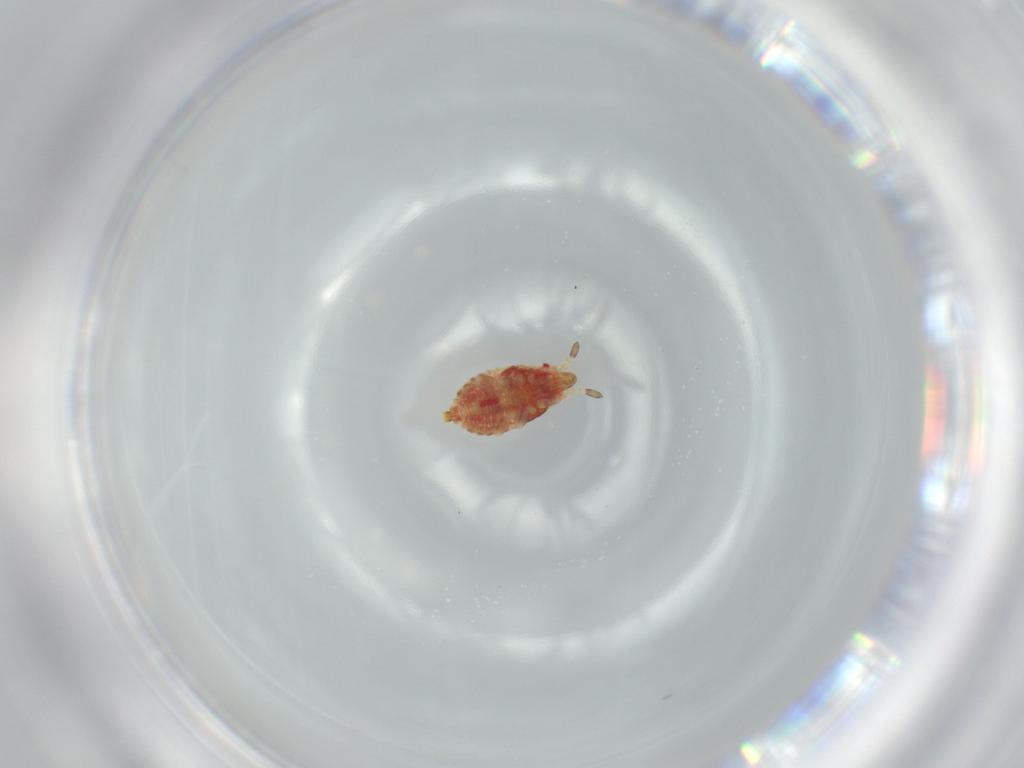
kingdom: Animalia
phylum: Arthropoda
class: Insecta
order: Hemiptera
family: Aradidae
